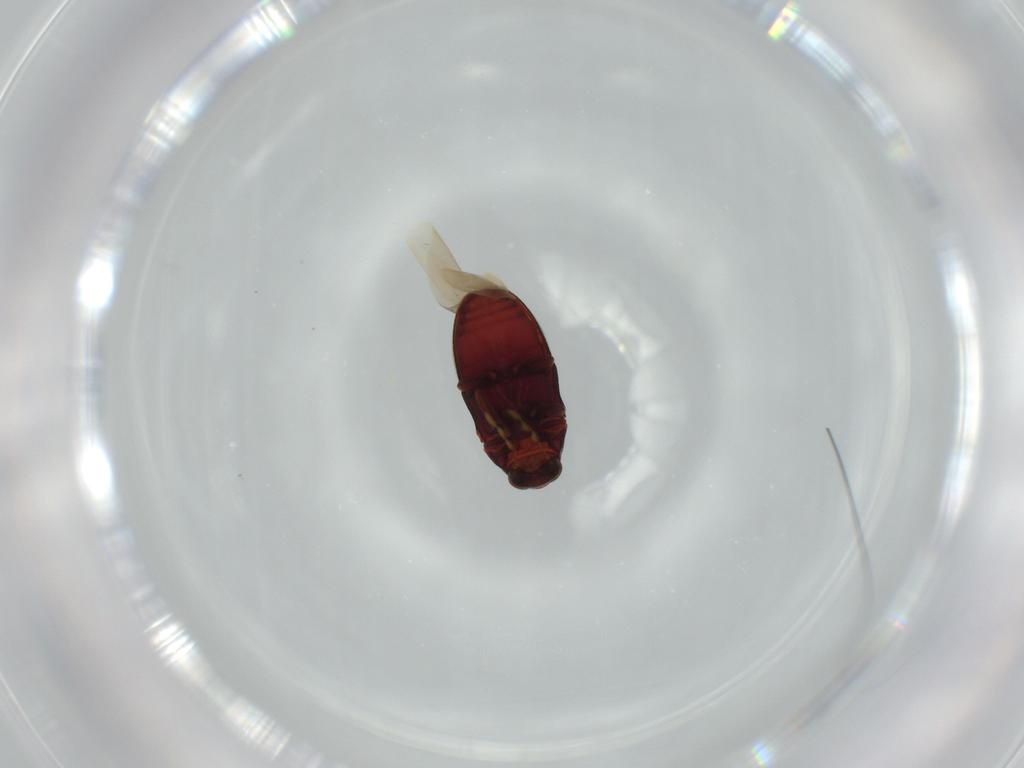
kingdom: Animalia
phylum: Arthropoda
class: Insecta
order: Coleoptera
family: Ptinidae
